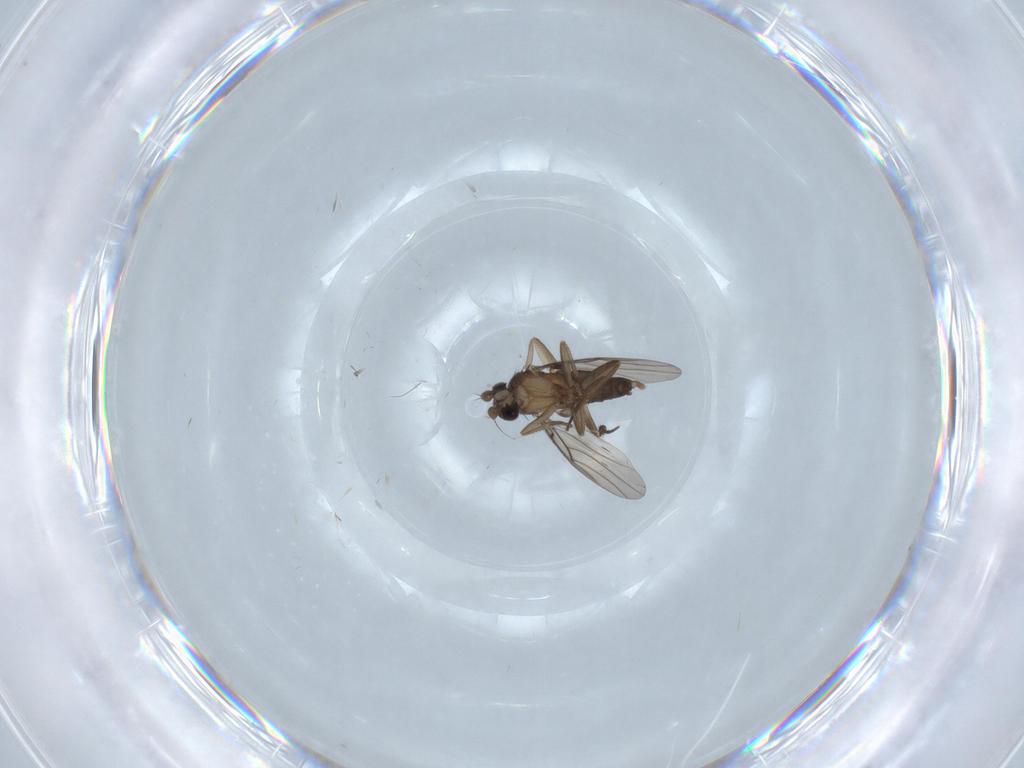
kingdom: Animalia
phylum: Arthropoda
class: Insecta
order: Diptera
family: Phoridae
